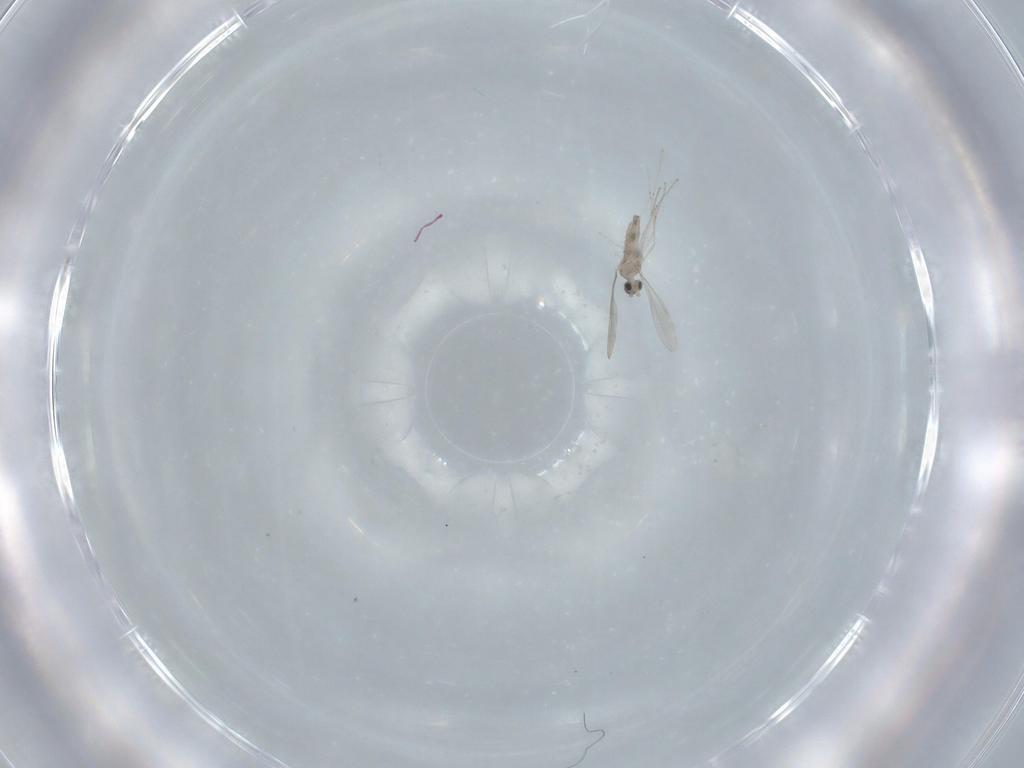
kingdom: Animalia
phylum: Arthropoda
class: Insecta
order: Diptera
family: Cecidomyiidae
